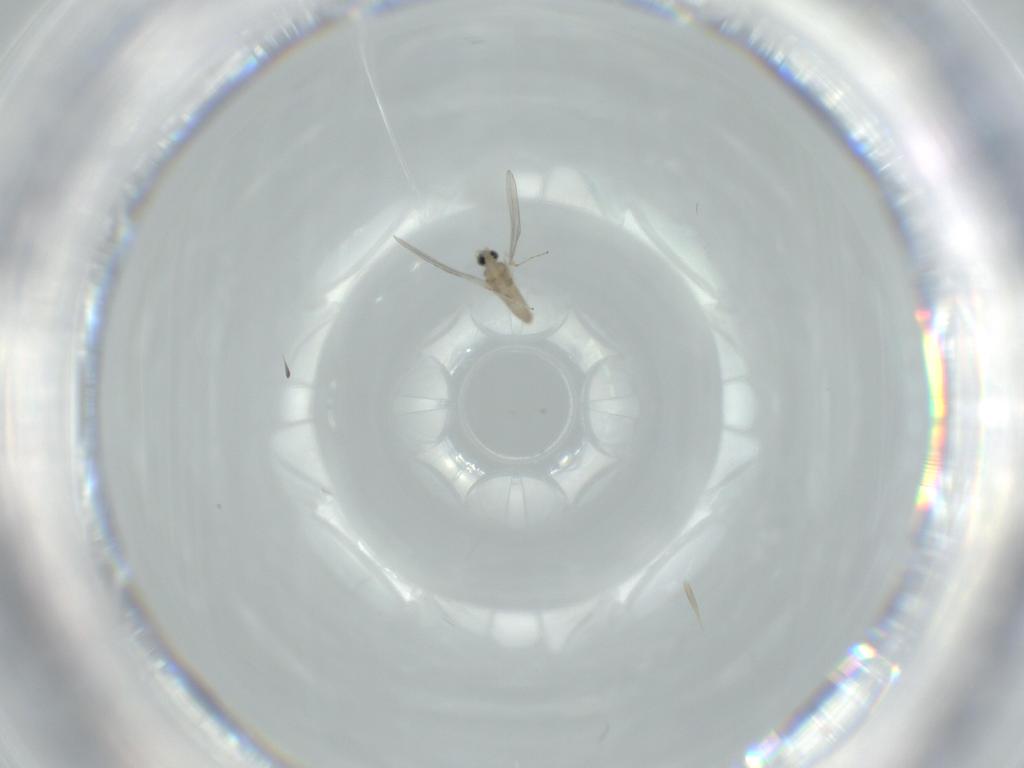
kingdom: Animalia
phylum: Arthropoda
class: Insecta
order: Diptera
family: Cecidomyiidae
